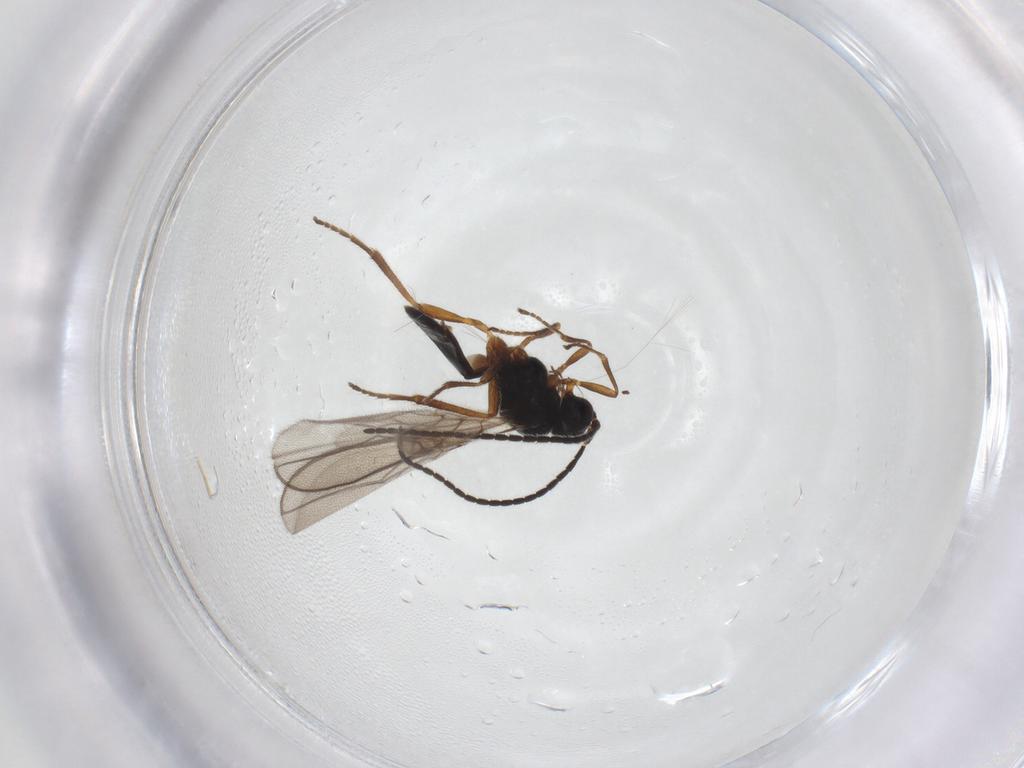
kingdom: Animalia
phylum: Arthropoda
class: Insecta
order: Hymenoptera
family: Braconidae
